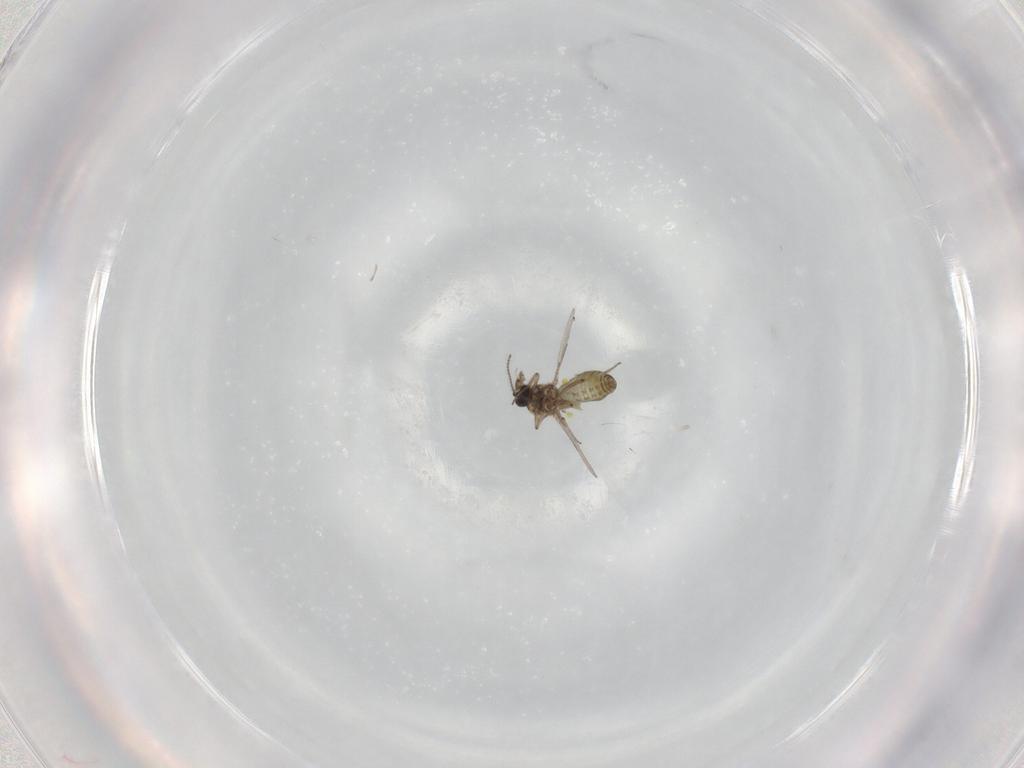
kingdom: Animalia
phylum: Arthropoda
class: Insecta
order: Diptera
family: Ceratopogonidae
